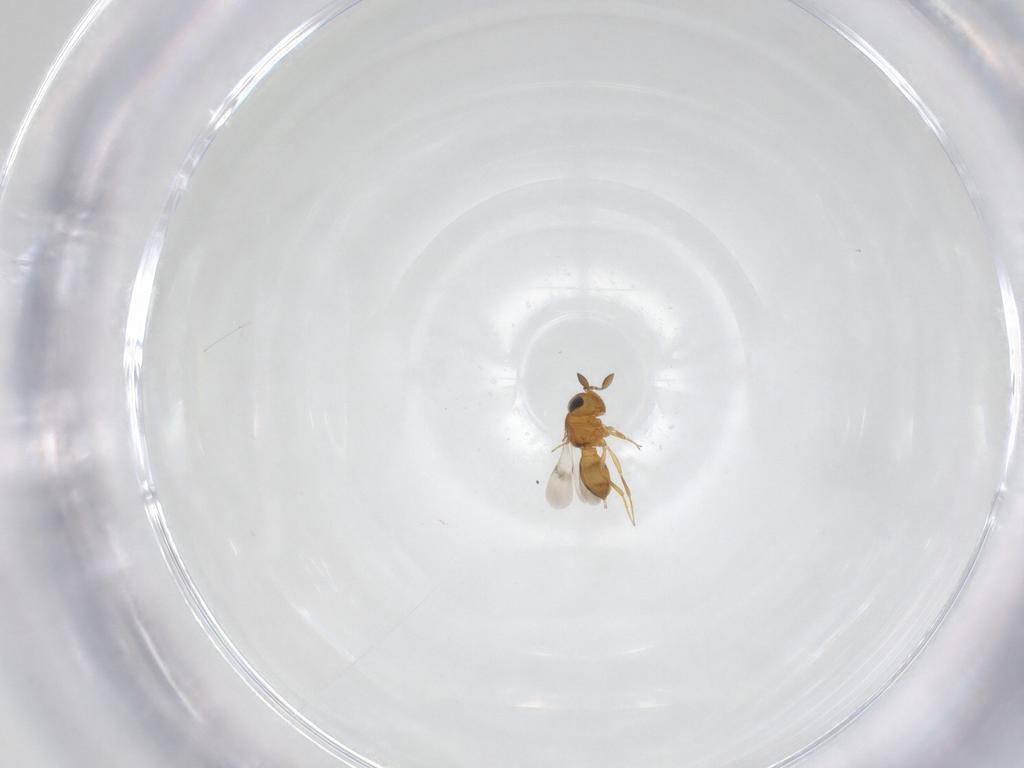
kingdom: Animalia
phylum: Arthropoda
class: Insecta
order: Hymenoptera
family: Scelionidae
